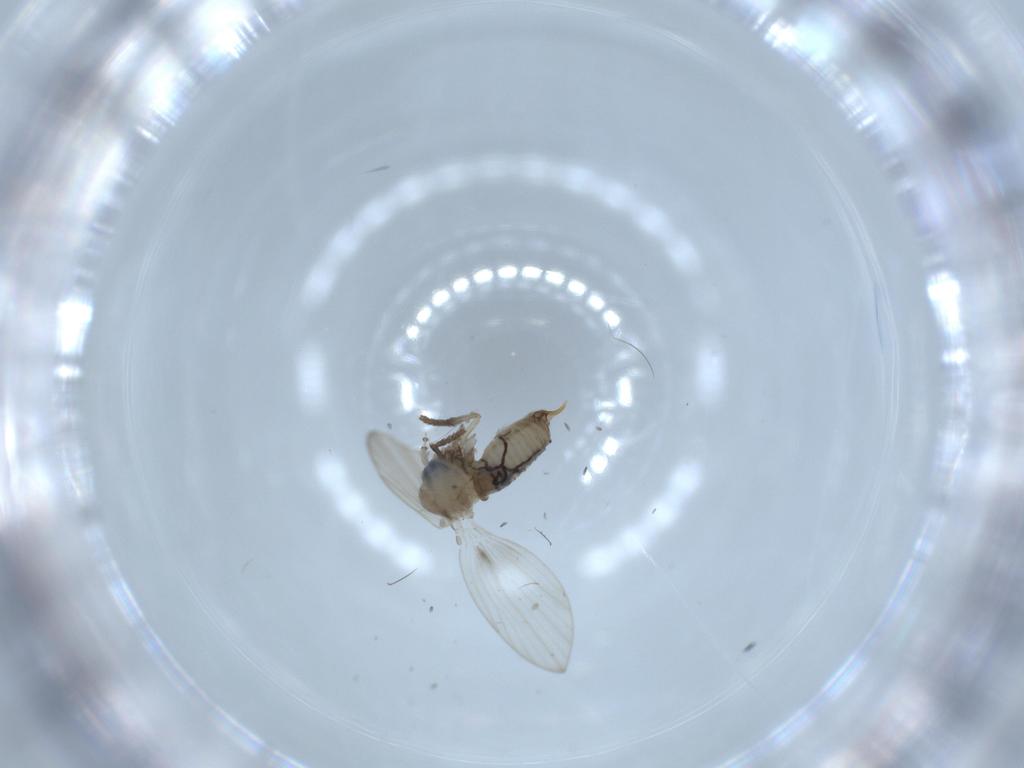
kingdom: Animalia
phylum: Arthropoda
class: Insecta
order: Diptera
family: Psychodidae
